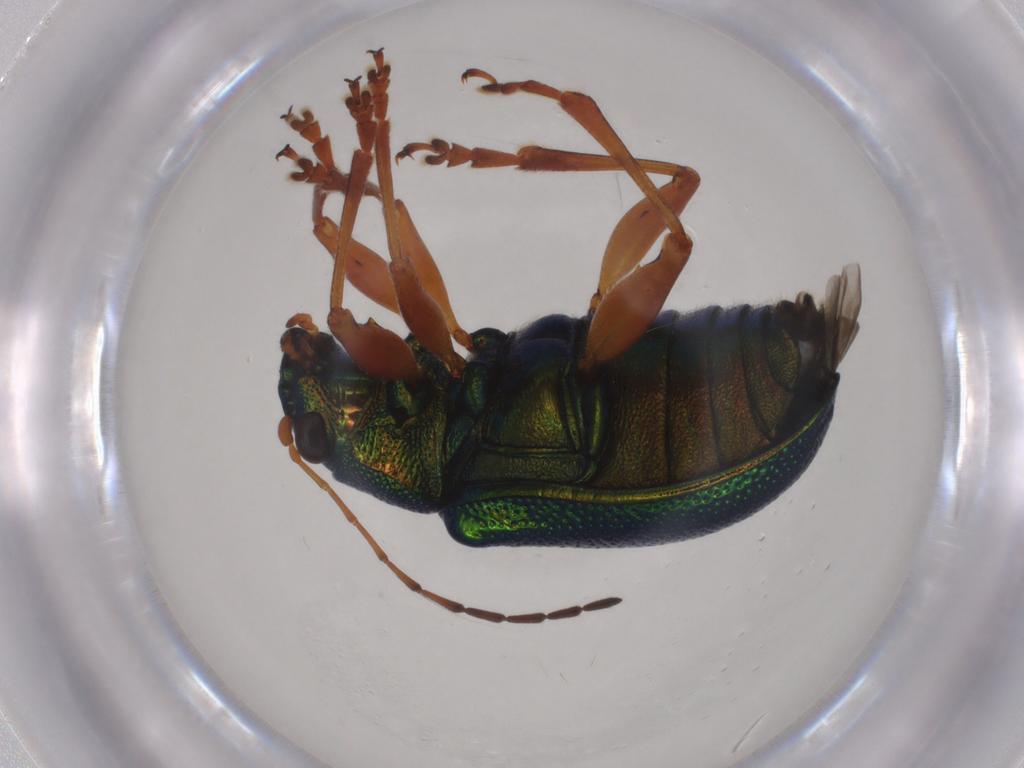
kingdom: Animalia
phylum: Arthropoda
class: Insecta
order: Coleoptera
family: Chrysomelidae
